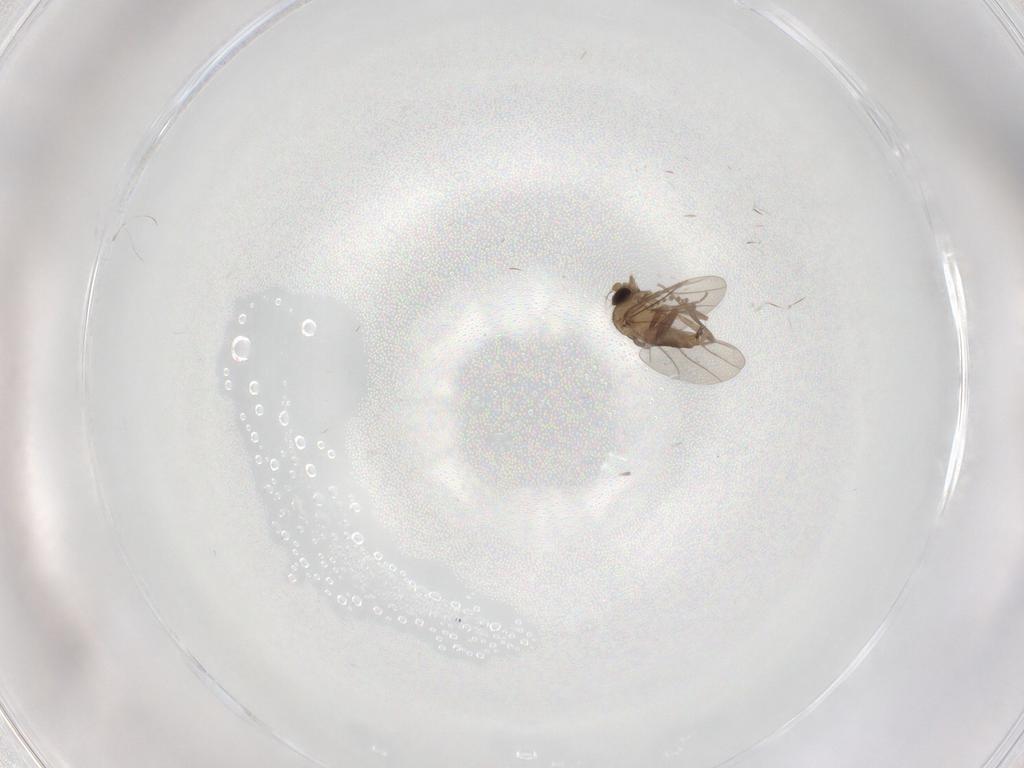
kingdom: Animalia
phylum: Arthropoda
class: Insecta
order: Diptera
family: Psychodidae
